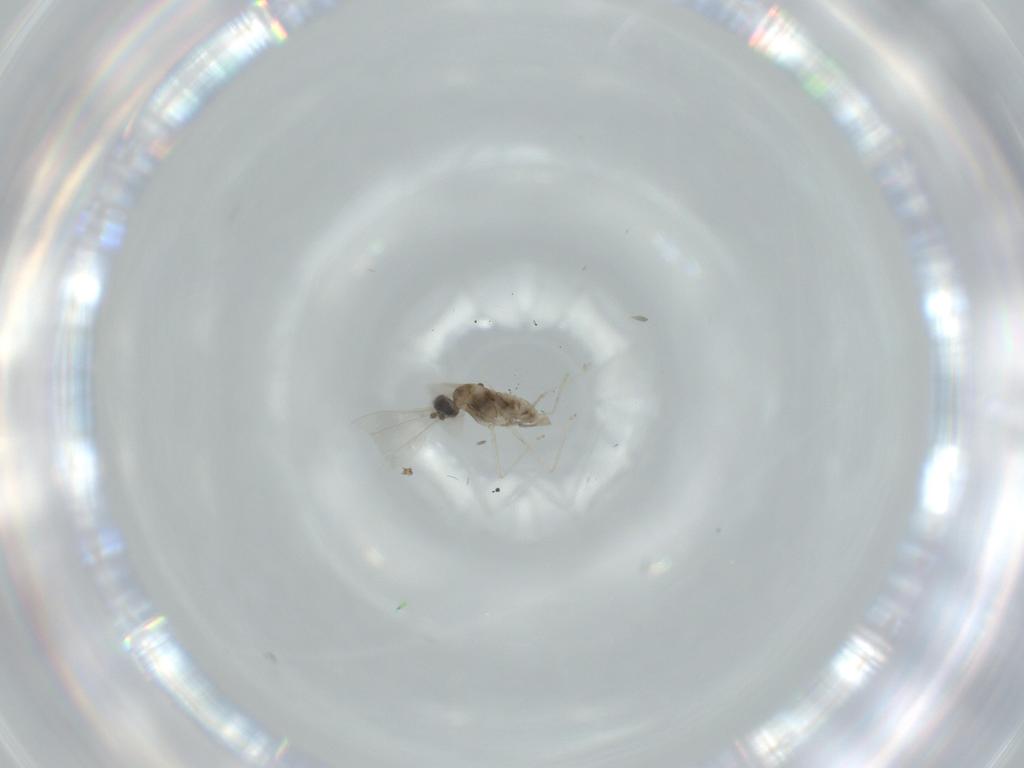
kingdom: Animalia
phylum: Arthropoda
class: Insecta
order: Diptera
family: Cecidomyiidae
